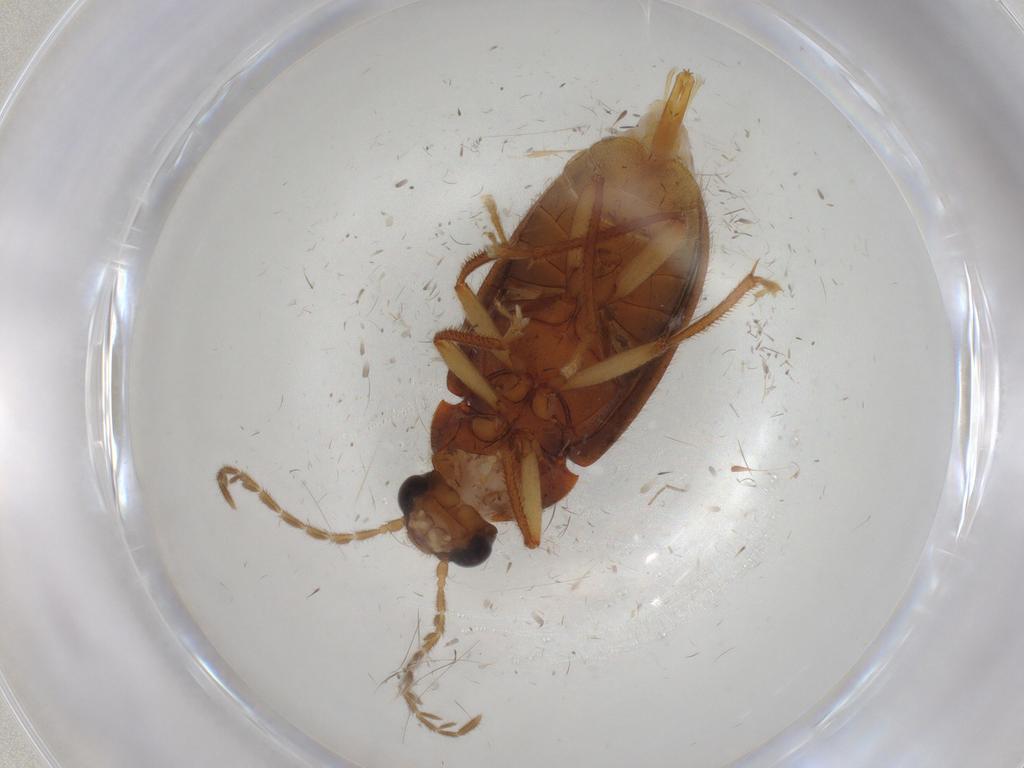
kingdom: Animalia
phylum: Arthropoda
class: Insecta
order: Coleoptera
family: Ptilodactylidae
